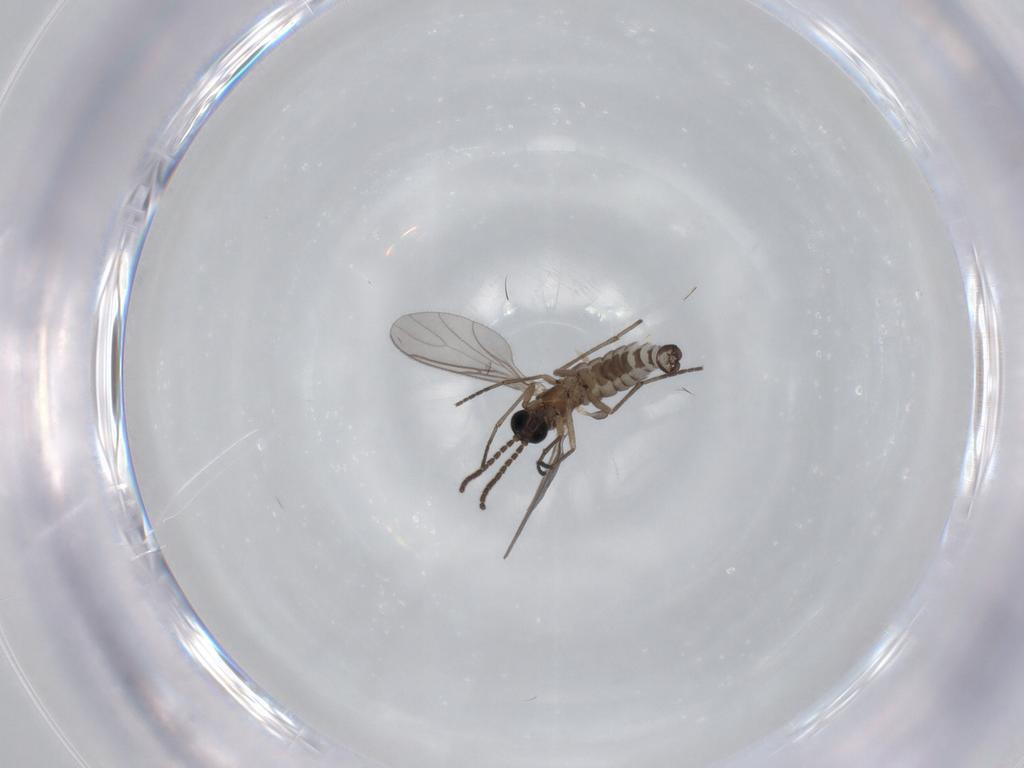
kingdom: Animalia
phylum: Arthropoda
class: Insecta
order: Diptera
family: Sciaridae
